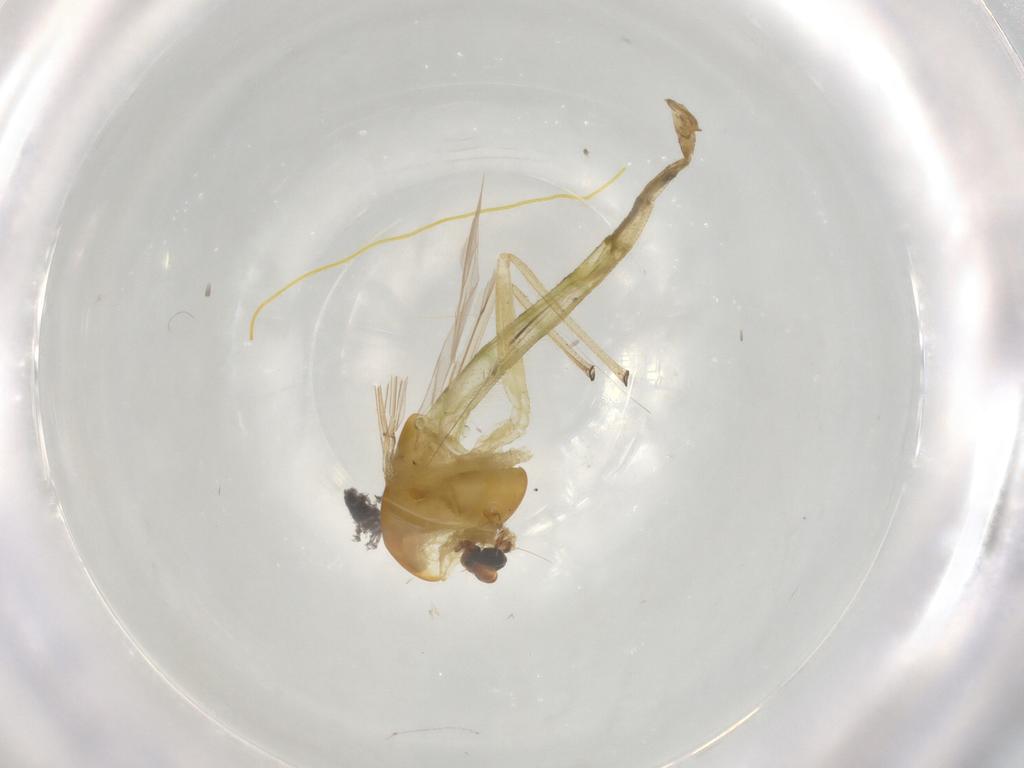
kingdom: Animalia
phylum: Arthropoda
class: Insecta
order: Diptera
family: Chironomidae
